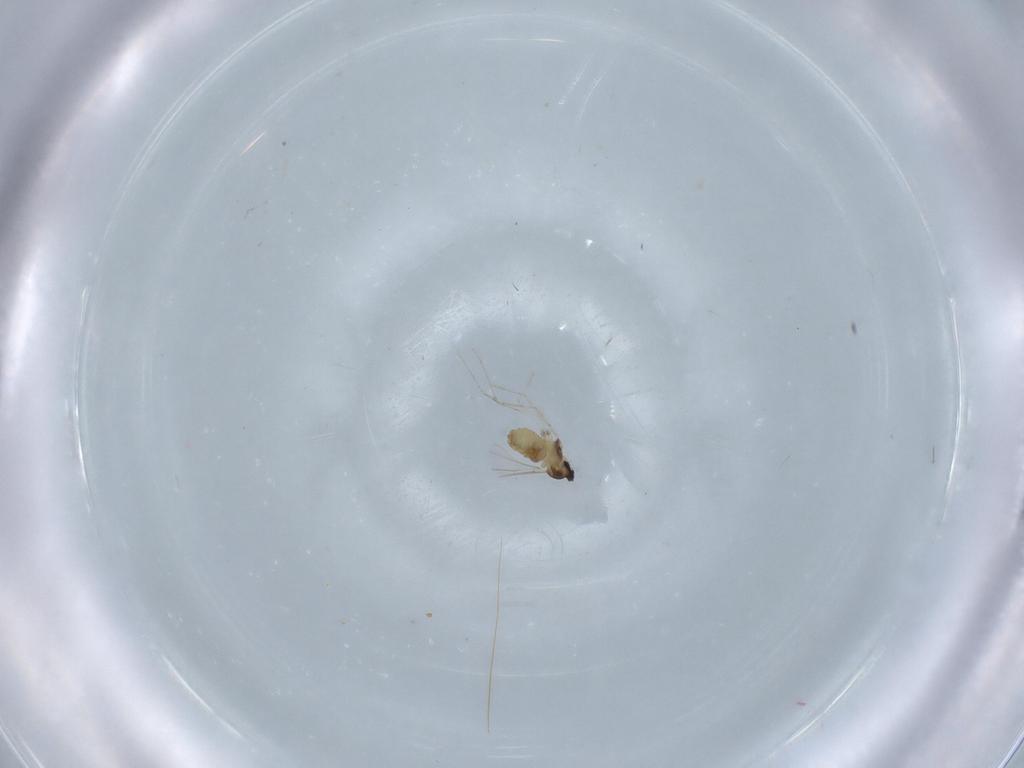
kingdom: Animalia
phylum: Arthropoda
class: Insecta
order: Diptera
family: Cecidomyiidae
